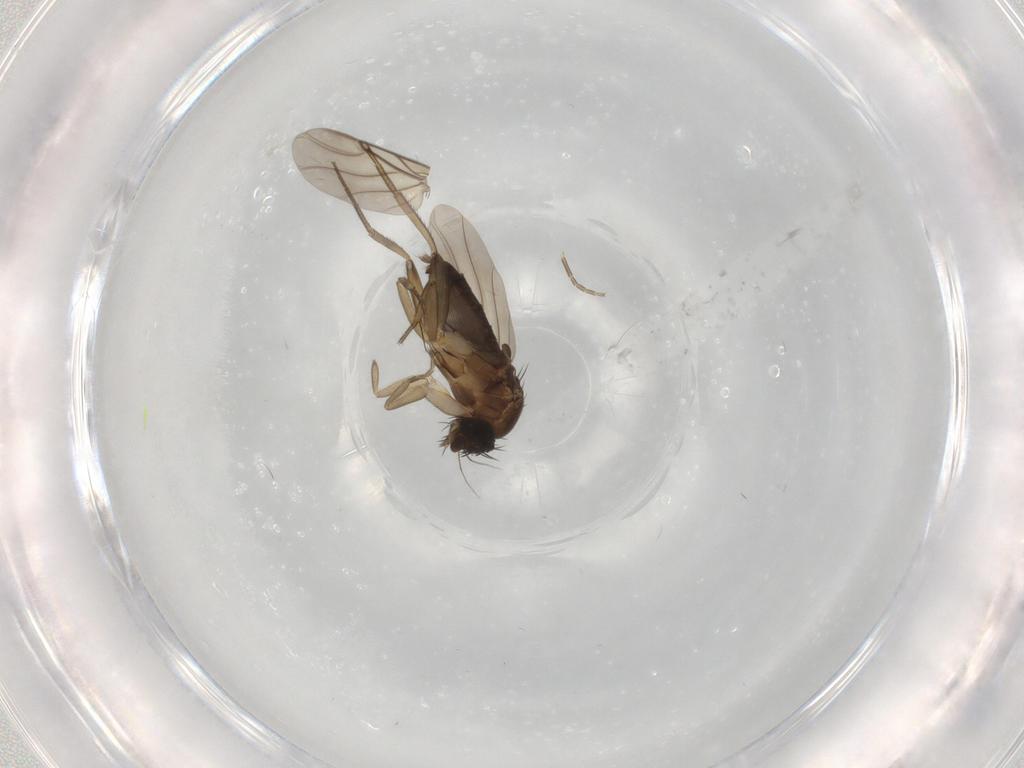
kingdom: Animalia
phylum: Arthropoda
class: Insecta
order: Diptera
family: Phoridae
